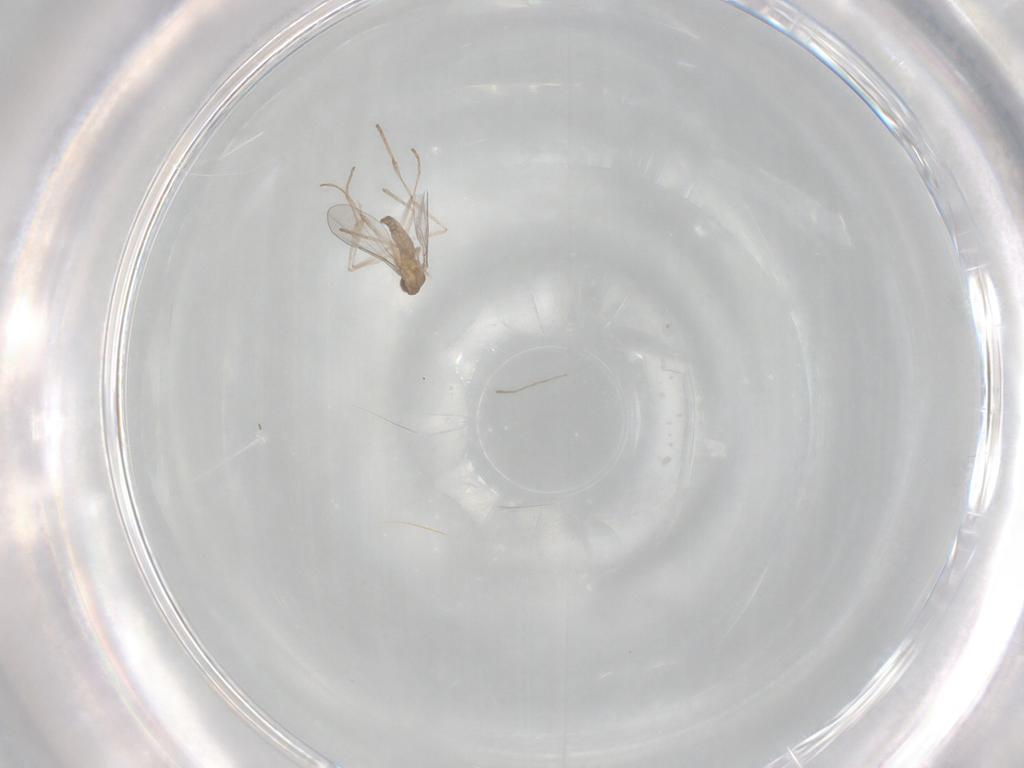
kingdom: Animalia
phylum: Arthropoda
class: Insecta
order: Diptera
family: Cecidomyiidae
